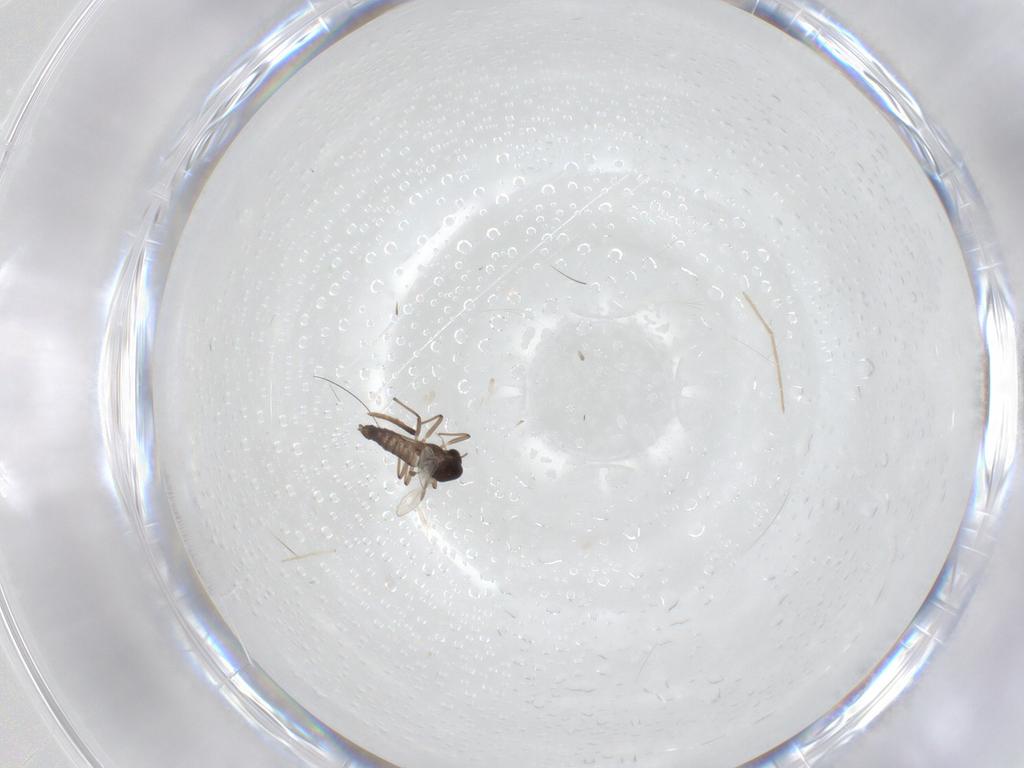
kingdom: Animalia
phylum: Arthropoda
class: Insecta
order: Diptera
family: Chironomidae
